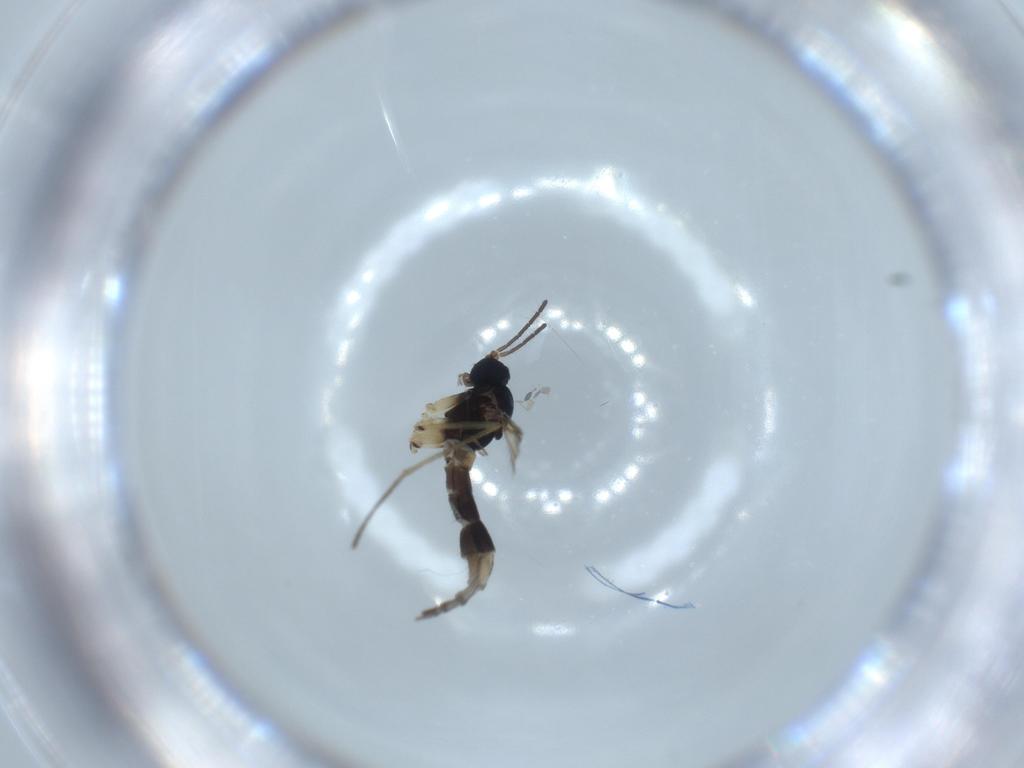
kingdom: Animalia
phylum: Arthropoda
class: Insecta
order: Diptera
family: Sciaridae
